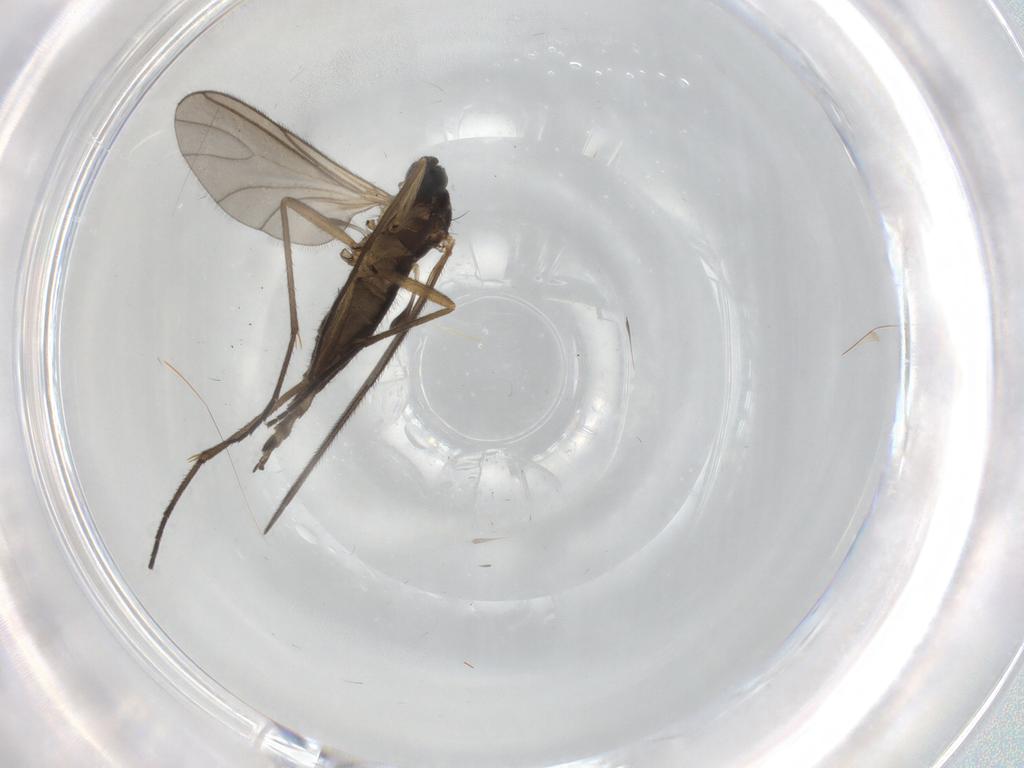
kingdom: Animalia
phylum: Arthropoda
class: Insecta
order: Diptera
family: Sciaridae
